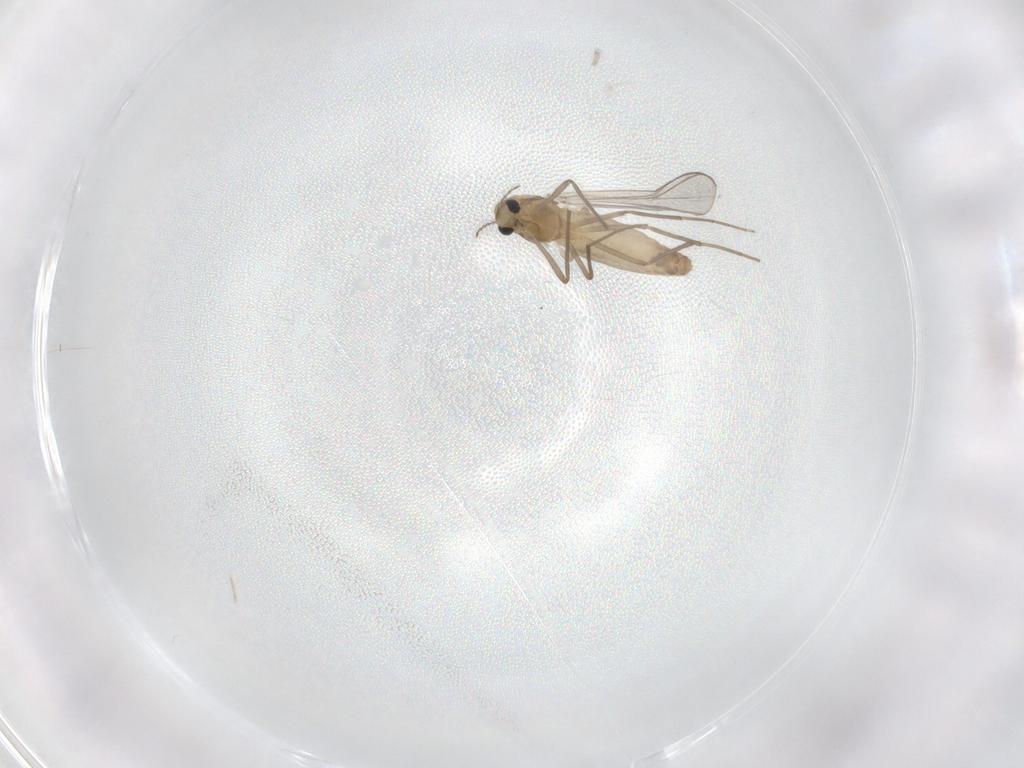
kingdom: Animalia
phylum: Arthropoda
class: Insecta
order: Diptera
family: Chironomidae
